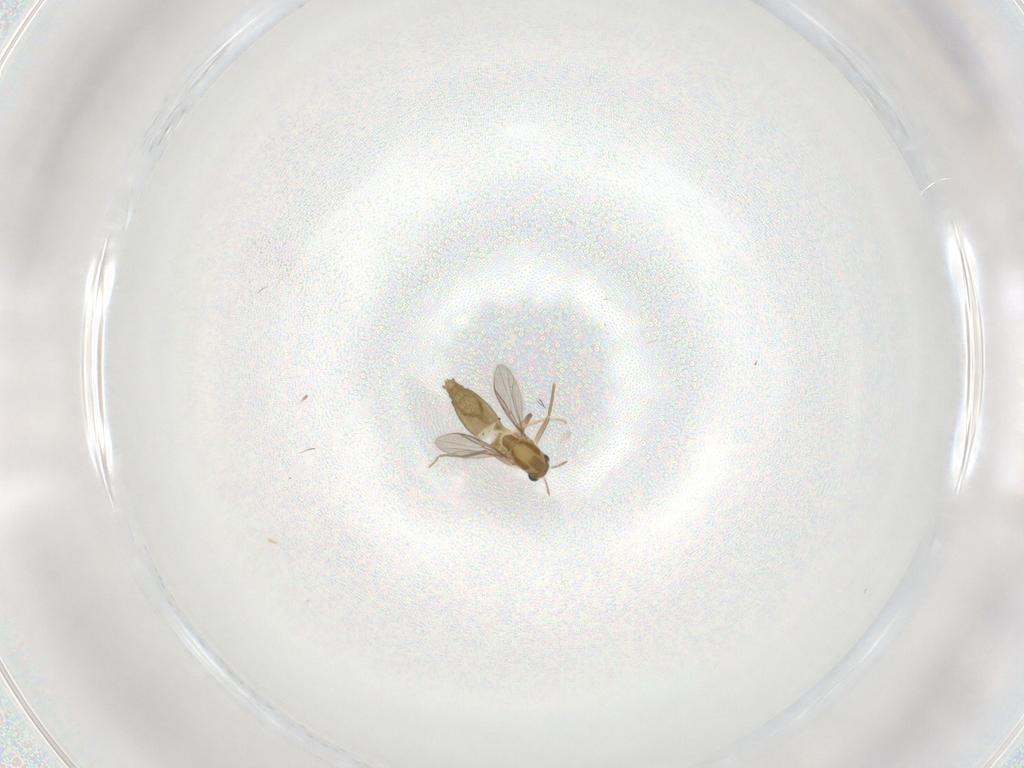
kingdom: Animalia
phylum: Arthropoda
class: Insecta
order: Diptera
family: Chironomidae
